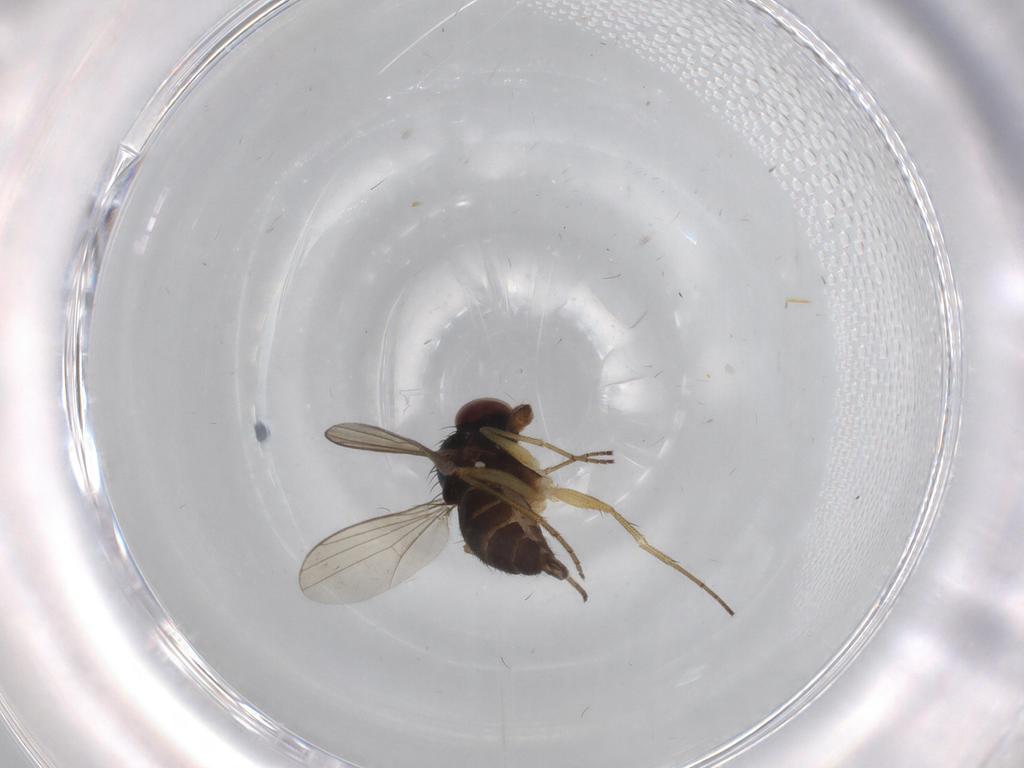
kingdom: Animalia
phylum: Arthropoda
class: Insecta
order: Diptera
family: Dolichopodidae
